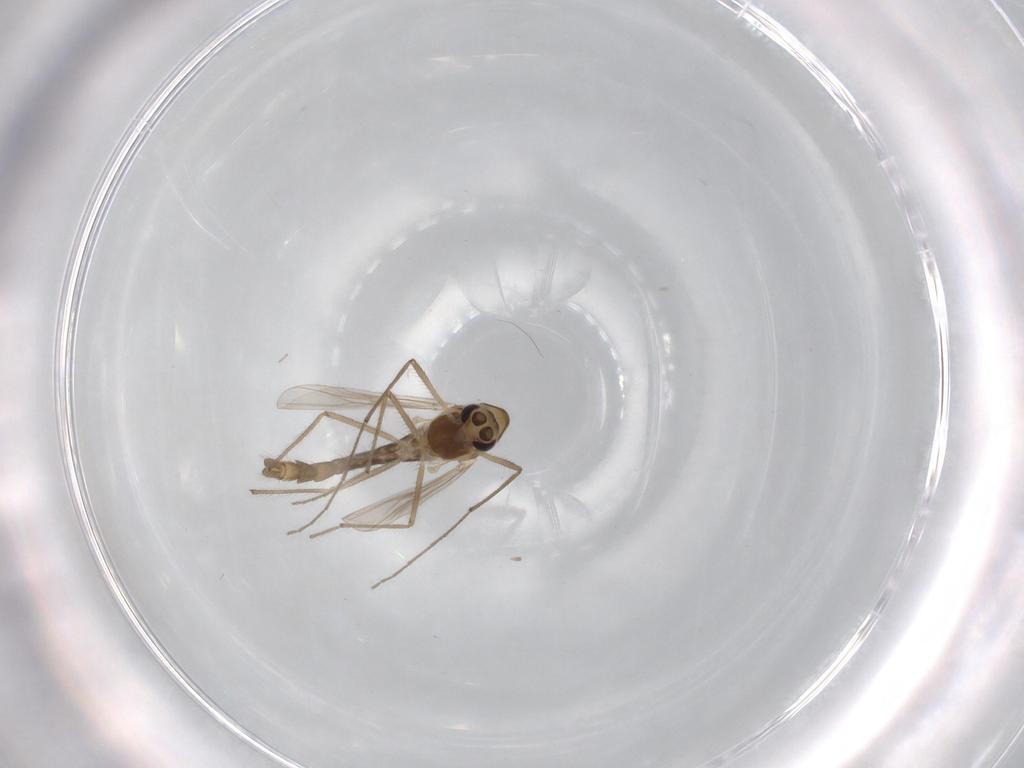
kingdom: Animalia
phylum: Arthropoda
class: Insecta
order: Diptera
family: Chironomidae
